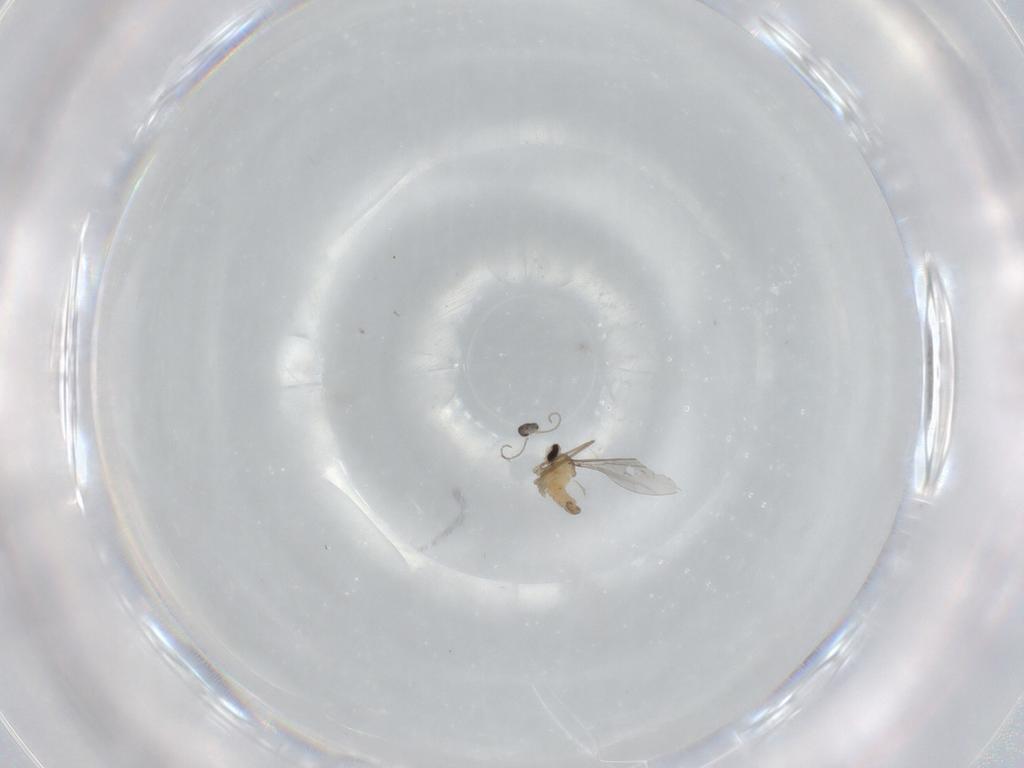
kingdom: Animalia
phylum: Arthropoda
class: Insecta
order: Diptera
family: Cecidomyiidae
